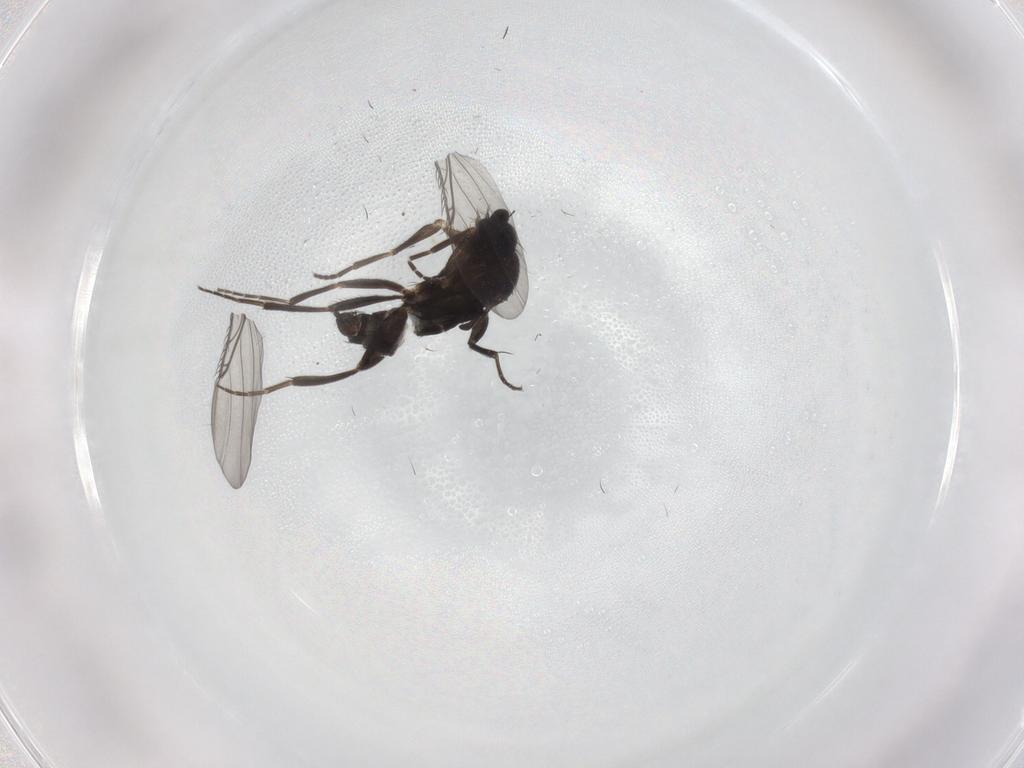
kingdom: Animalia
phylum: Arthropoda
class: Insecta
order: Diptera
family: Phoridae
